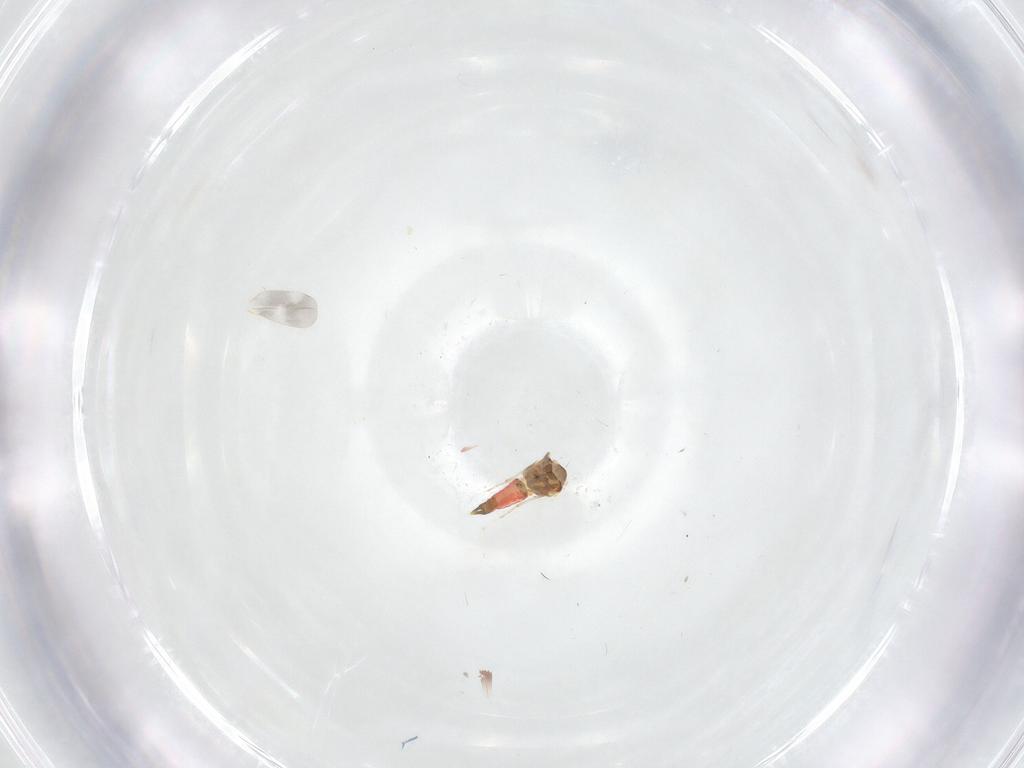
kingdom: Animalia
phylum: Arthropoda
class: Insecta
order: Hemiptera
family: Aleyrodidae
